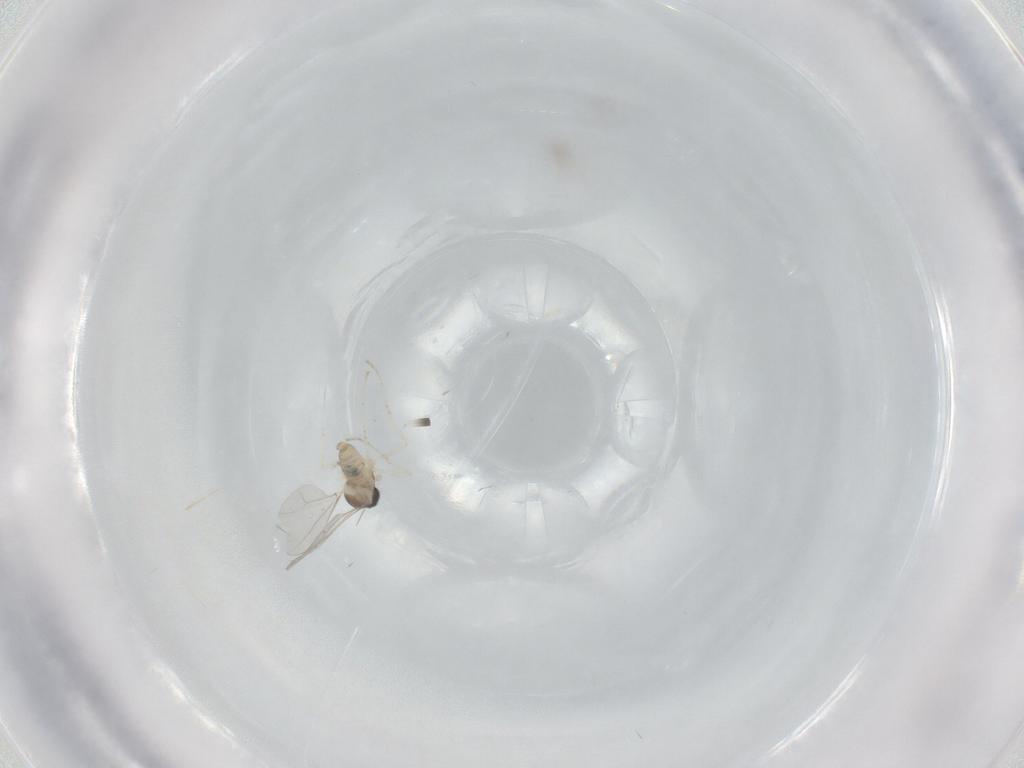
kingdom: Animalia
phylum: Arthropoda
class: Insecta
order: Diptera
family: Cecidomyiidae
